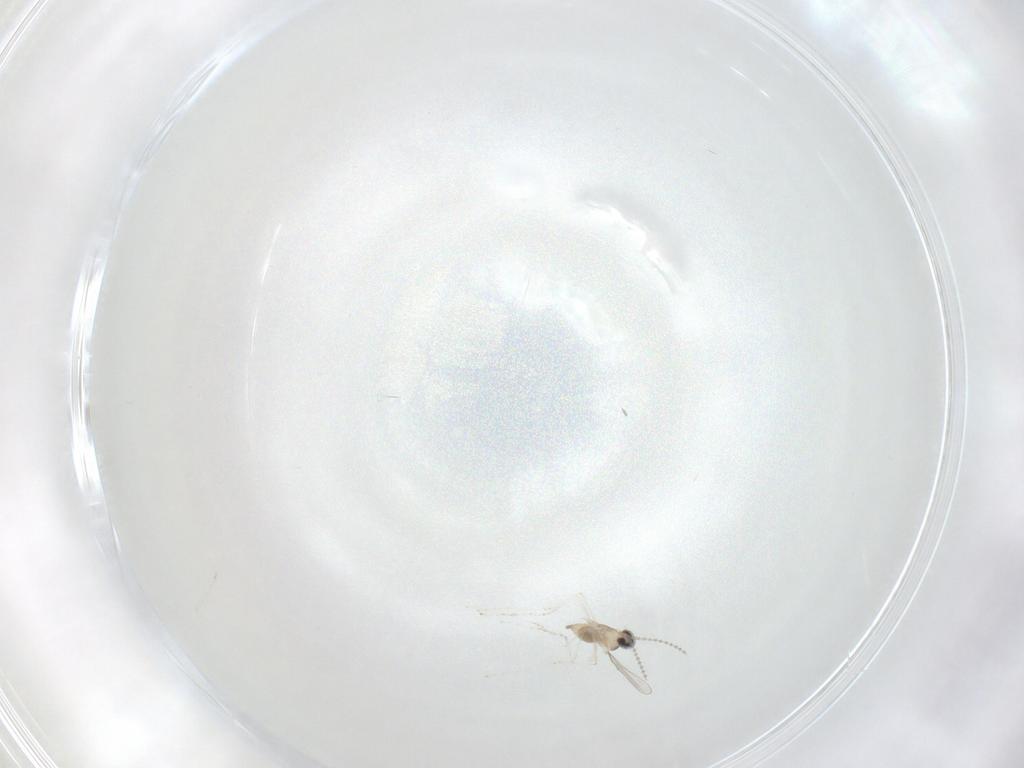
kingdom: Animalia
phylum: Arthropoda
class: Insecta
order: Diptera
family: Cecidomyiidae
